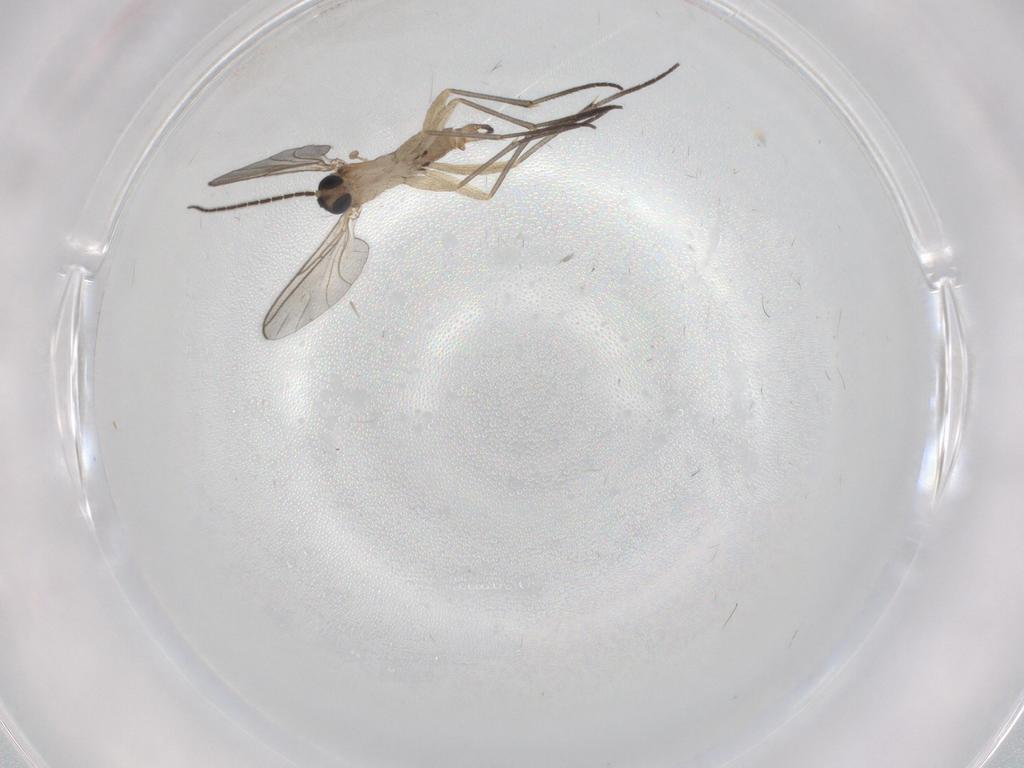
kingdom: Animalia
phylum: Arthropoda
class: Insecta
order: Diptera
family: Sciaridae
